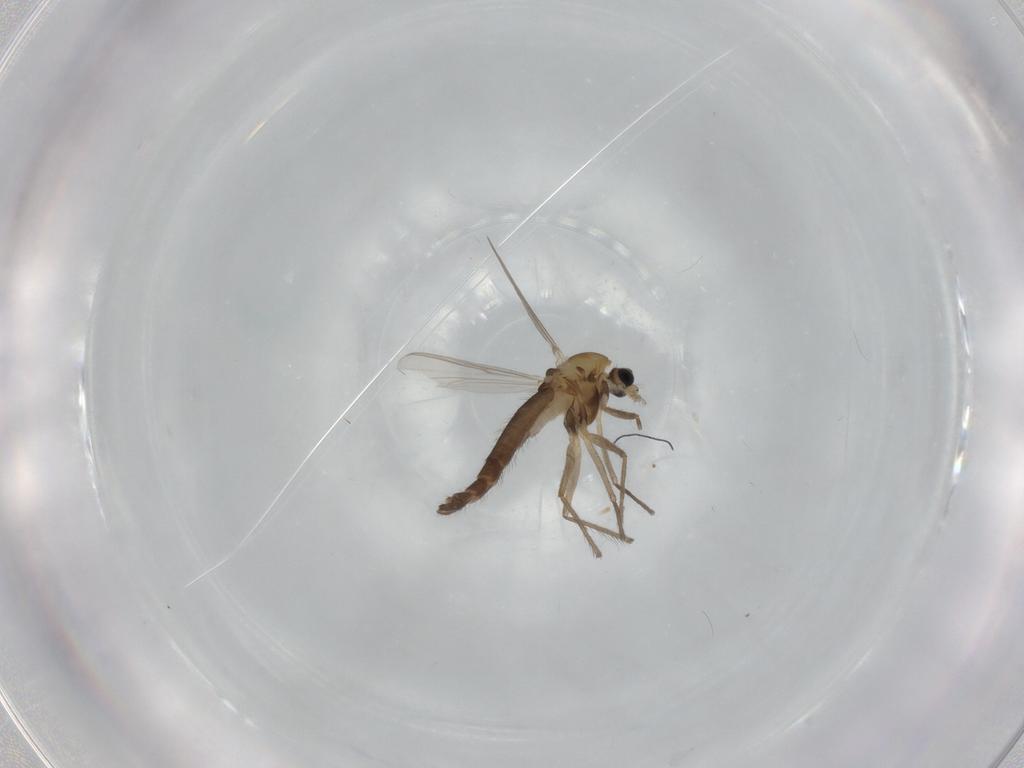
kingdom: Animalia
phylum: Arthropoda
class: Insecta
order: Diptera
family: Chironomidae
